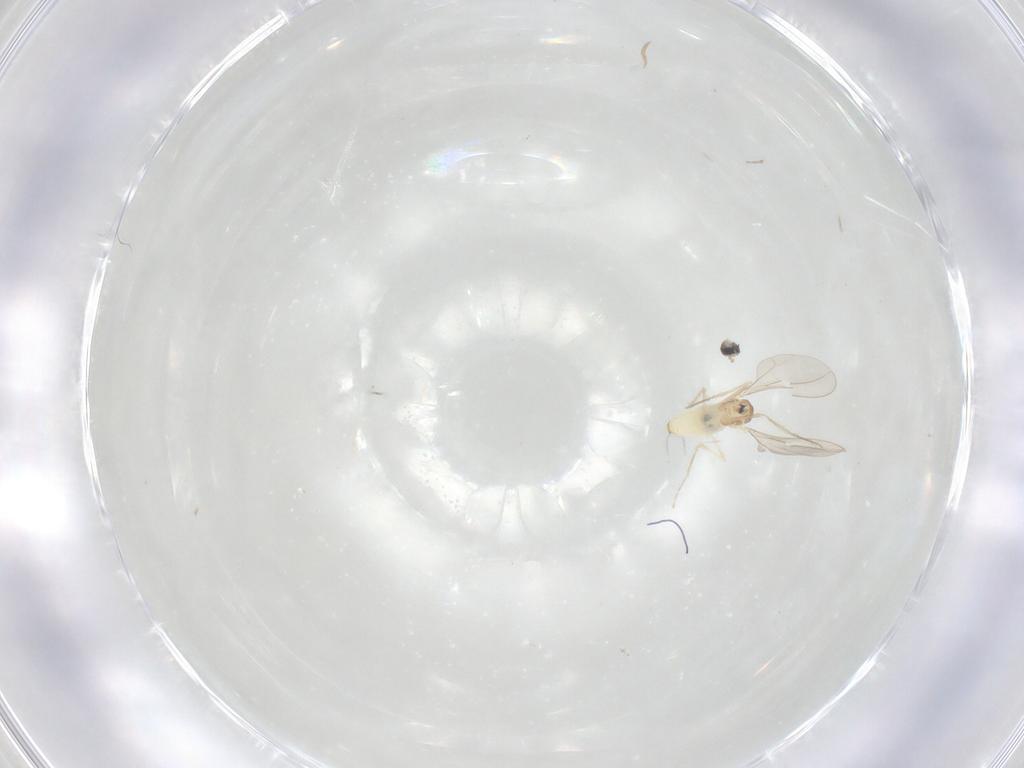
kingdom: Animalia
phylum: Arthropoda
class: Insecta
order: Diptera
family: Cecidomyiidae
